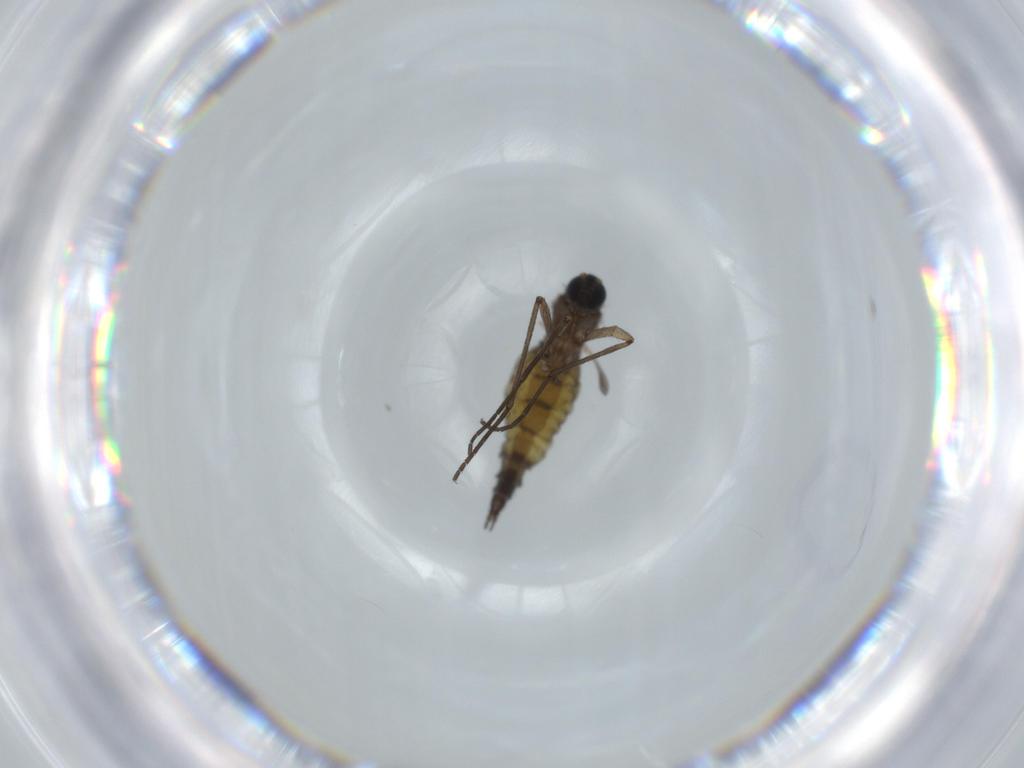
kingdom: Animalia
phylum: Arthropoda
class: Insecta
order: Diptera
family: Sciaridae
